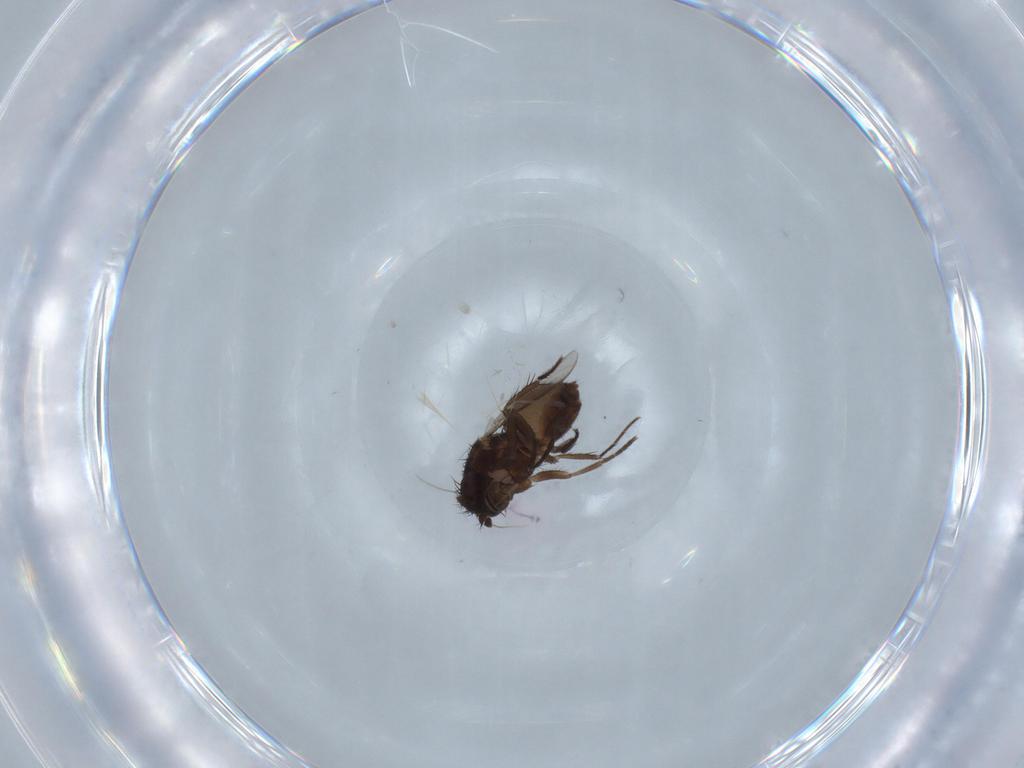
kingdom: Animalia
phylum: Arthropoda
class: Insecta
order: Diptera
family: Sphaeroceridae
